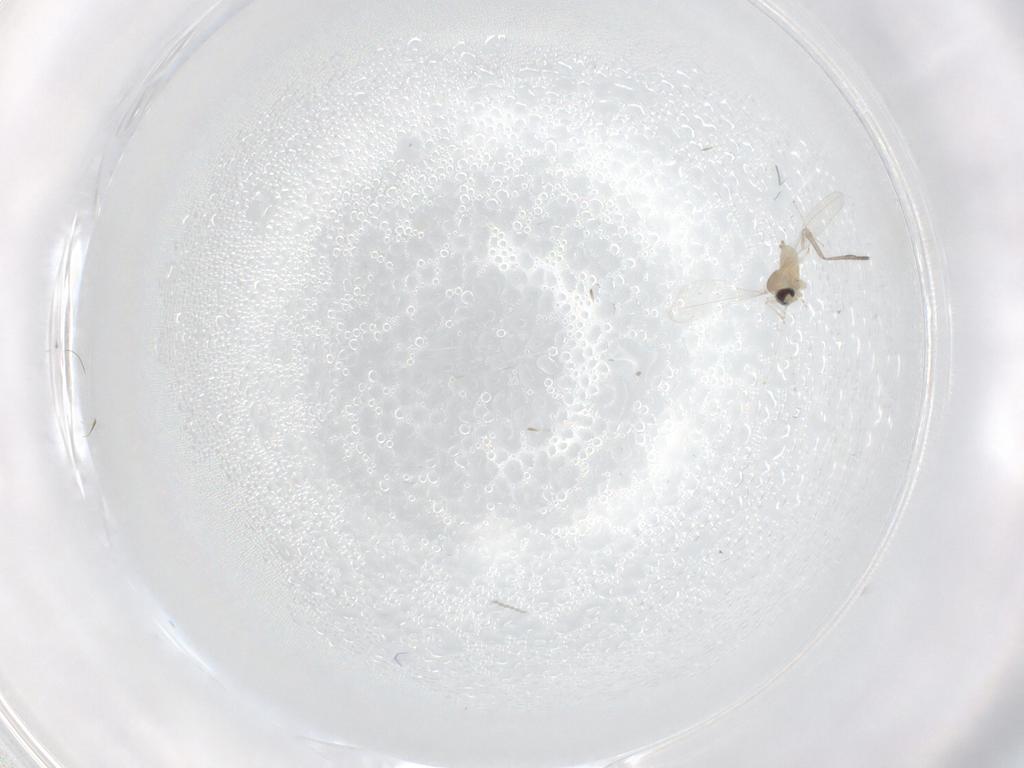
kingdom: Animalia
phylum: Arthropoda
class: Insecta
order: Diptera
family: Cecidomyiidae
